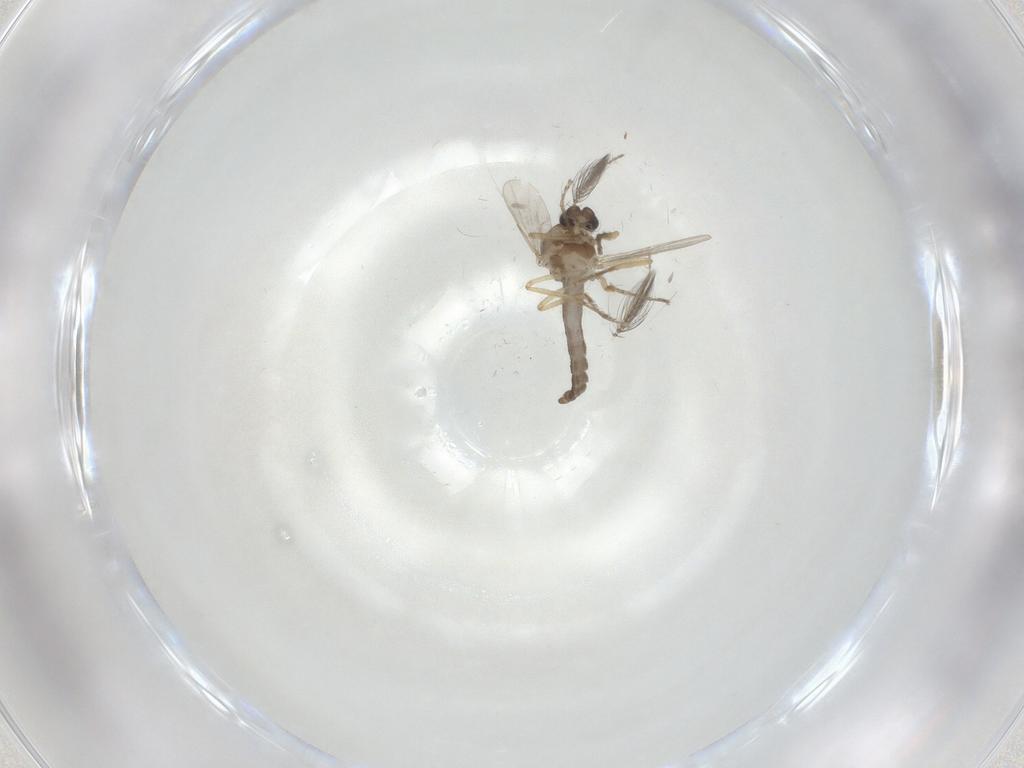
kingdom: Animalia
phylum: Arthropoda
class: Insecta
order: Diptera
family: Ceratopogonidae
